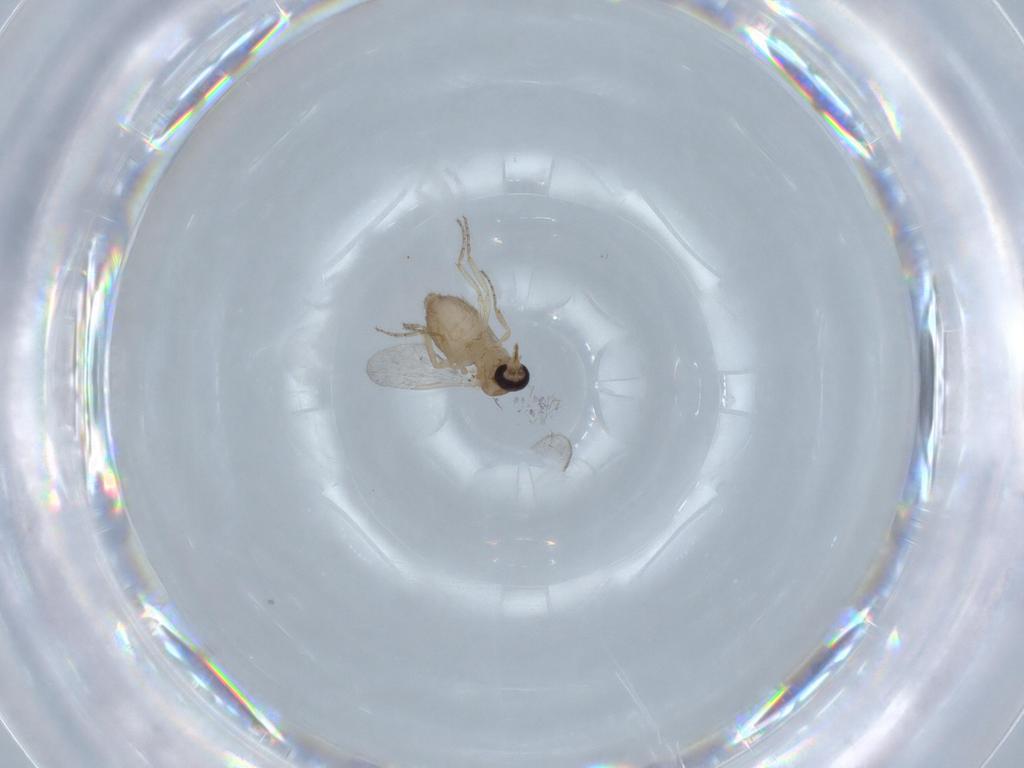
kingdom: Animalia
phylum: Arthropoda
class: Insecta
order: Diptera
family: Ceratopogonidae
